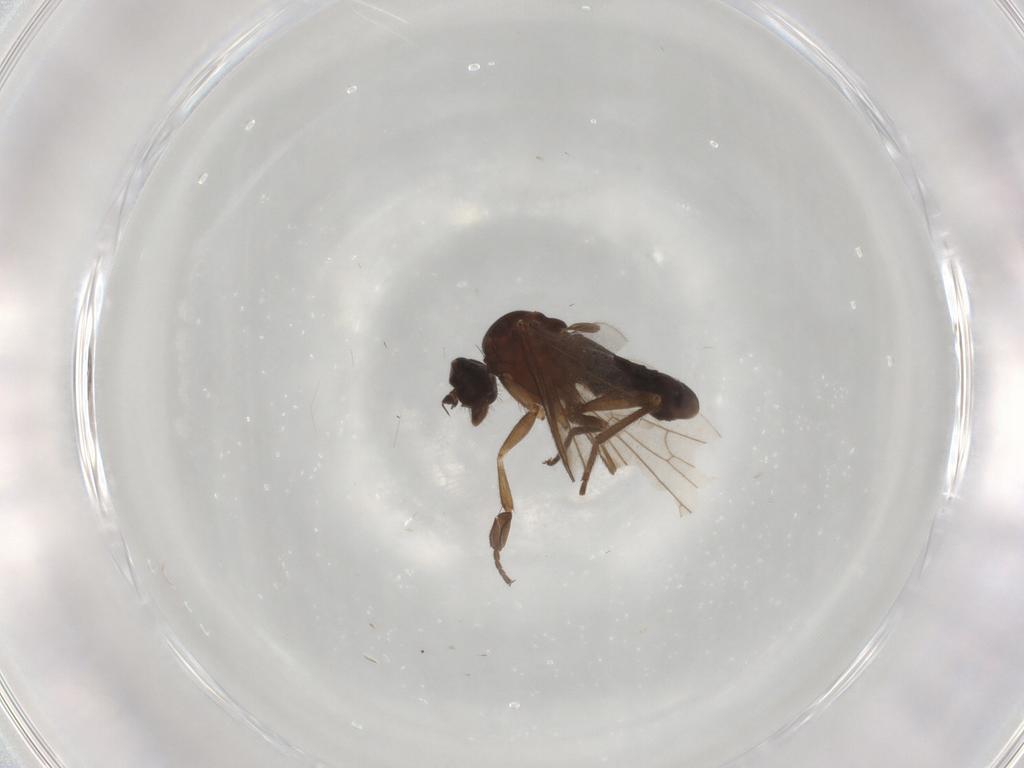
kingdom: Animalia
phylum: Arthropoda
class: Insecta
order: Diptera
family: Empididae
